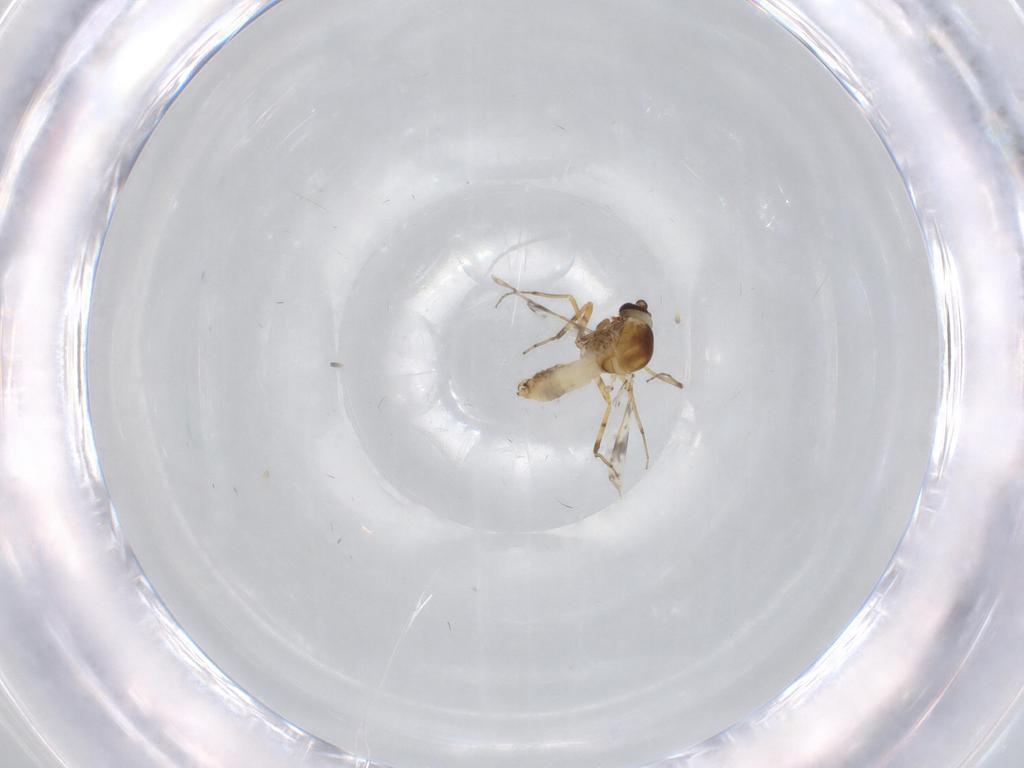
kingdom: Animalia
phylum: Arthropoda
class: Insecta
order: Diptera
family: Ceratopogonidae
